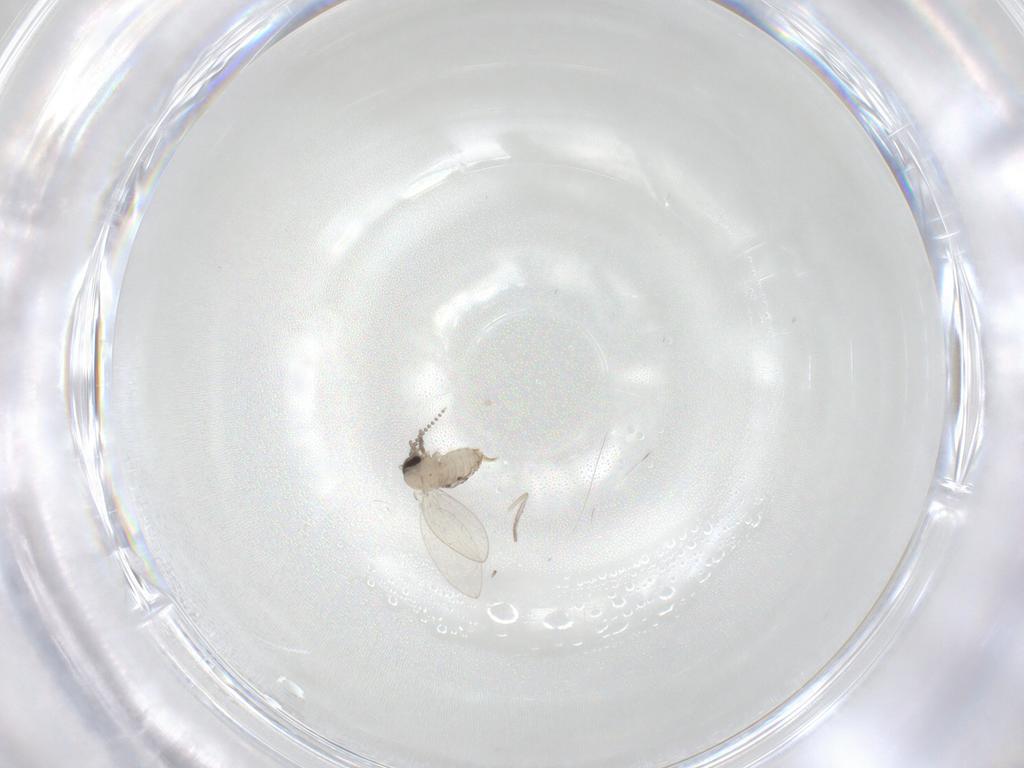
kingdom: Animalia
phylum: Arthropoda
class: Insecta
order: Diptera
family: Psychodidae
